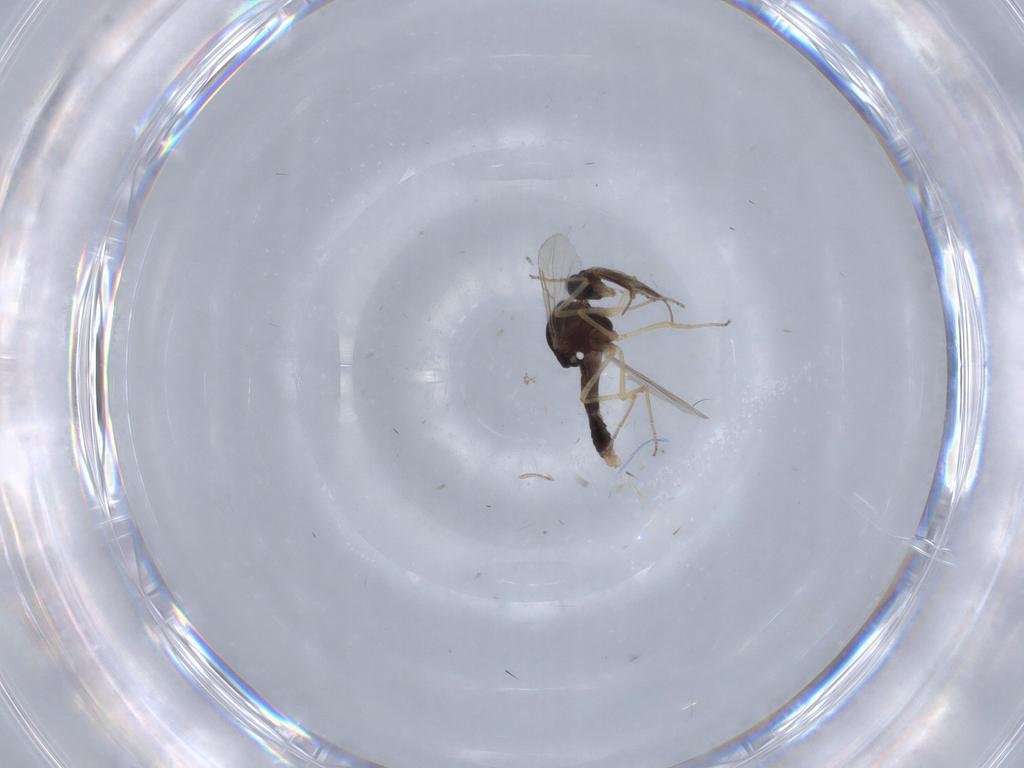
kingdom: Animalia
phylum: Arthropoda
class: Insecta
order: Diptera
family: Ceratopogonidae
